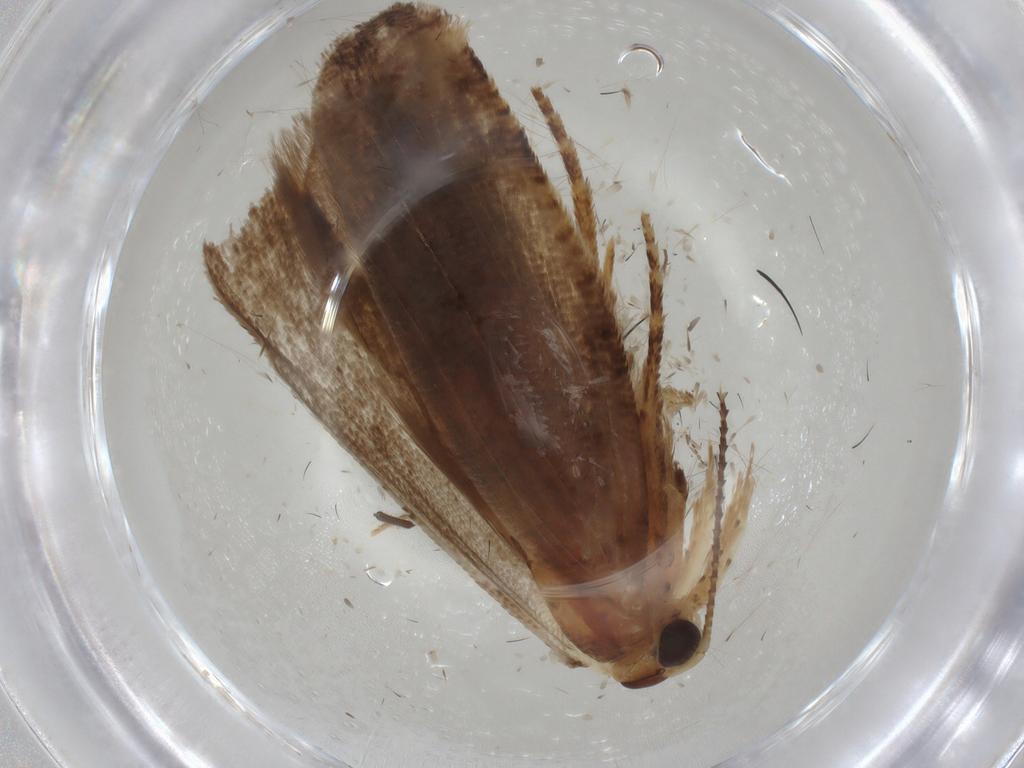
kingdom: Animalia
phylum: Arthropoda
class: Insecta
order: Lepidoptera
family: Gelechiidae
